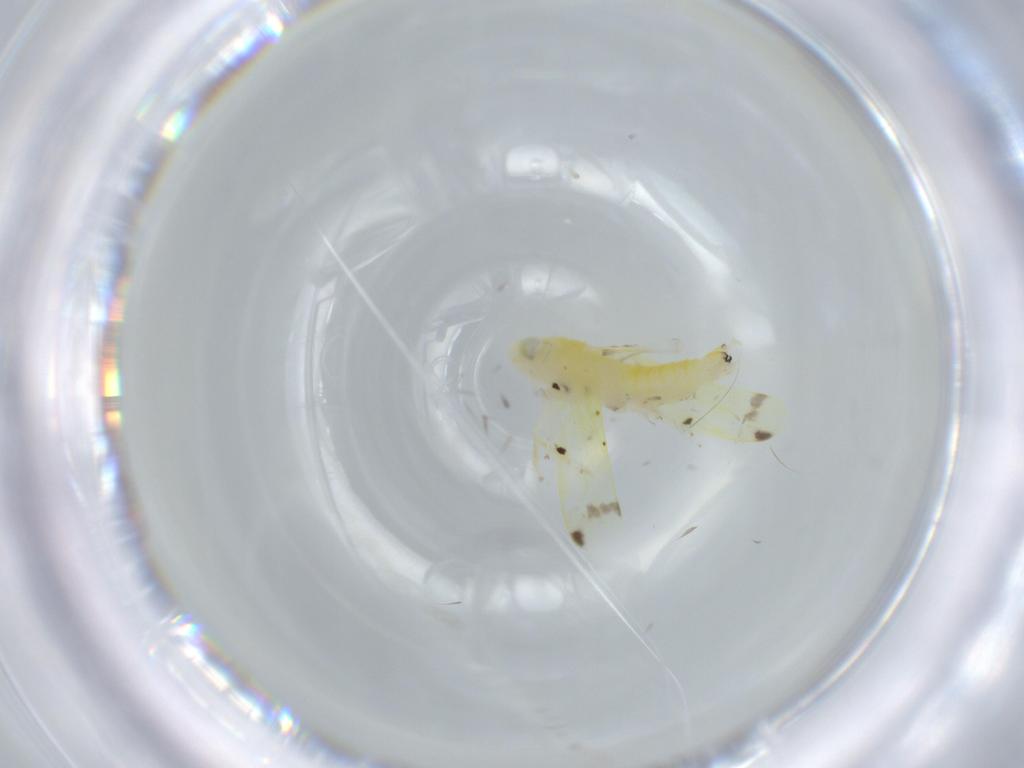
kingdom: Animalia
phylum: Arthropoda
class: Insecta
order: Hemiptera
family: Cicadellidae
